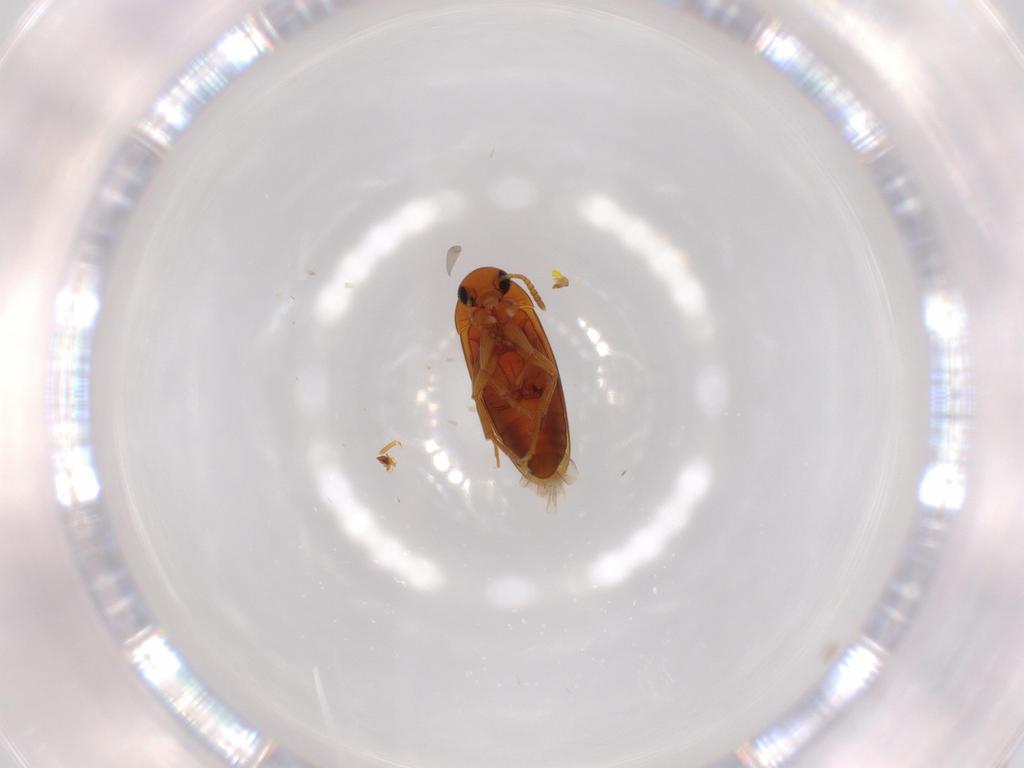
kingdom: Animalia
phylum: Arthropoda
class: Insecta
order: Coleoptera
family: Scraptiidae
